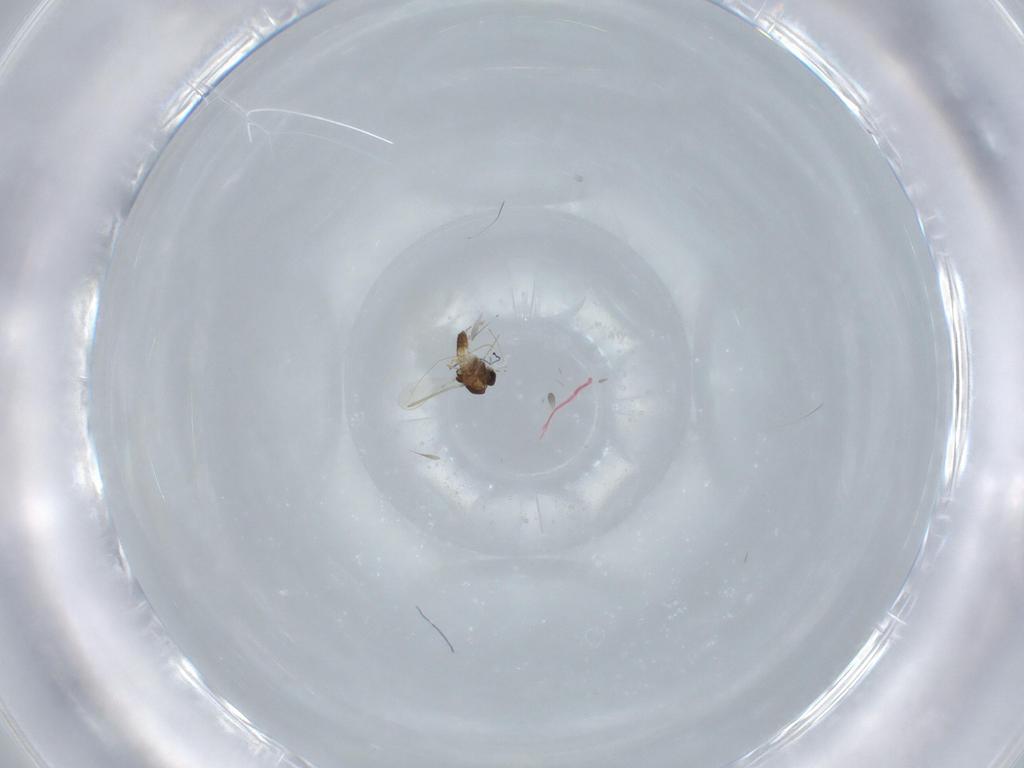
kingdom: Animalia
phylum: Arthropoda
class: Insecta
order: Diptera
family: Chironomidae
